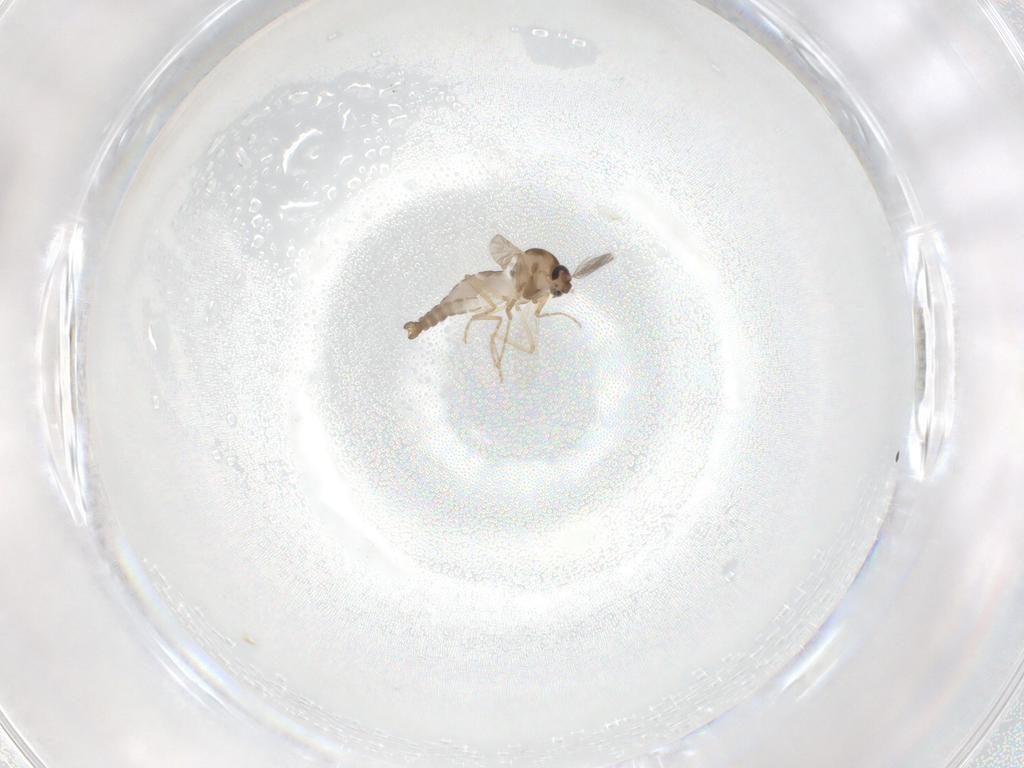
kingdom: Animalia
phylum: Arthropoda
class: Insecta
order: Diptera
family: Ceratopogonidae
